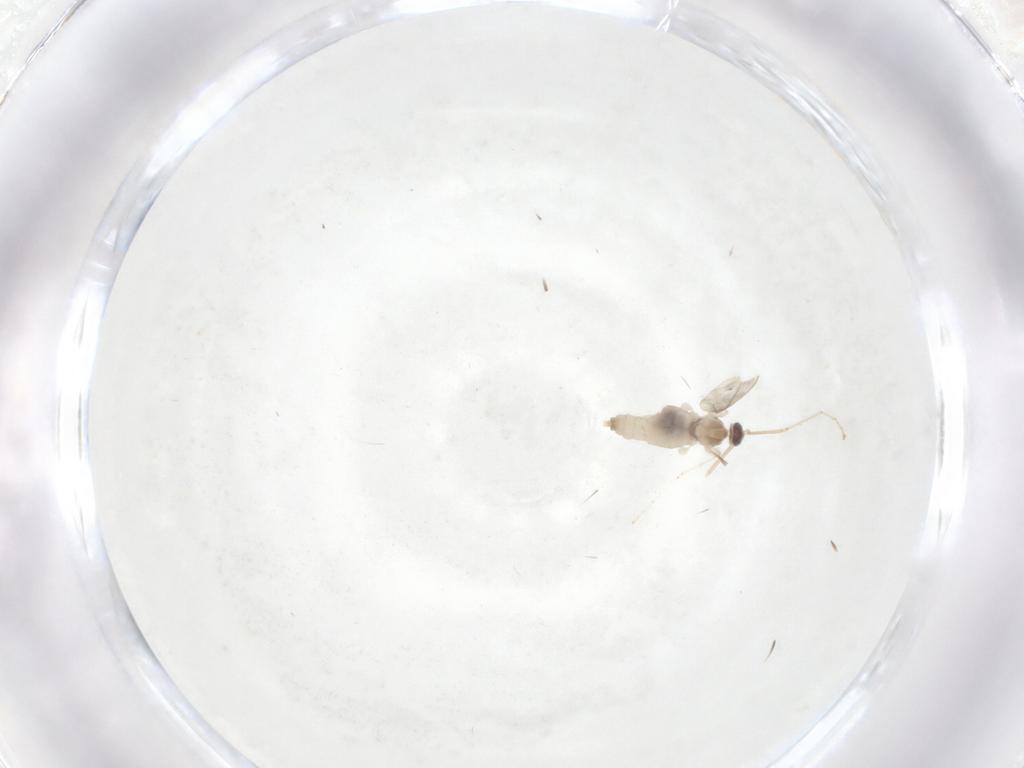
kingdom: Animalia
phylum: Arthropoda
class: Insecta
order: Diptera
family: Cecidomyiidae
